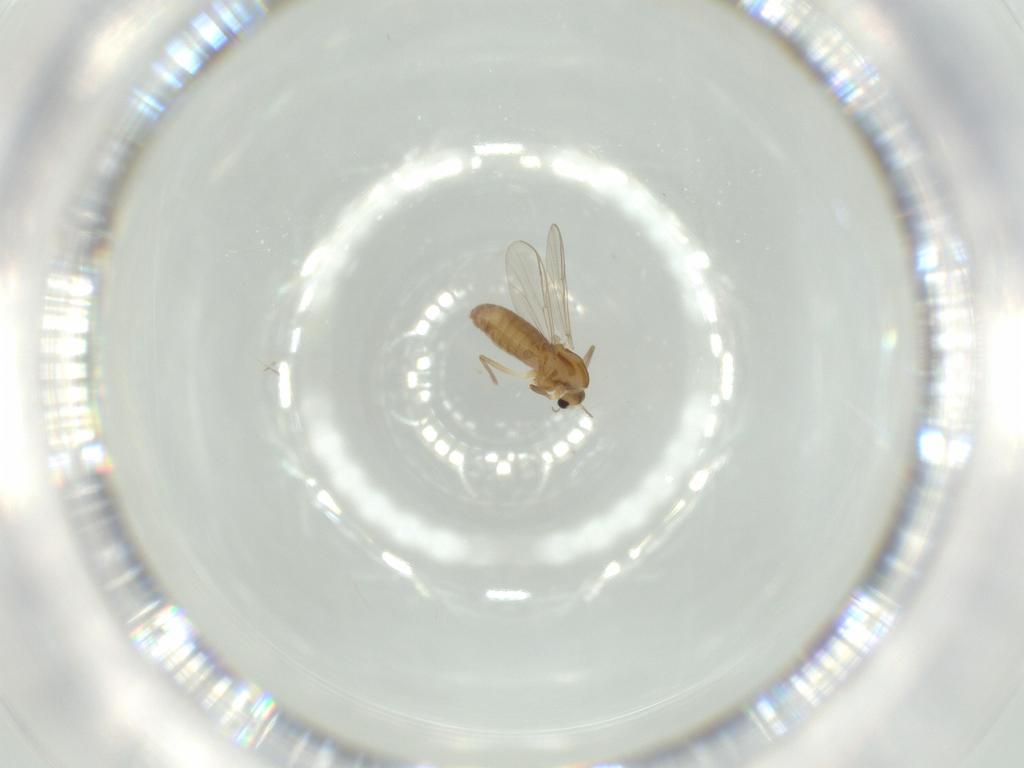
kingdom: Animalia
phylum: Arthropoda
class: Insecta
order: Diptera
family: Chironomidae
